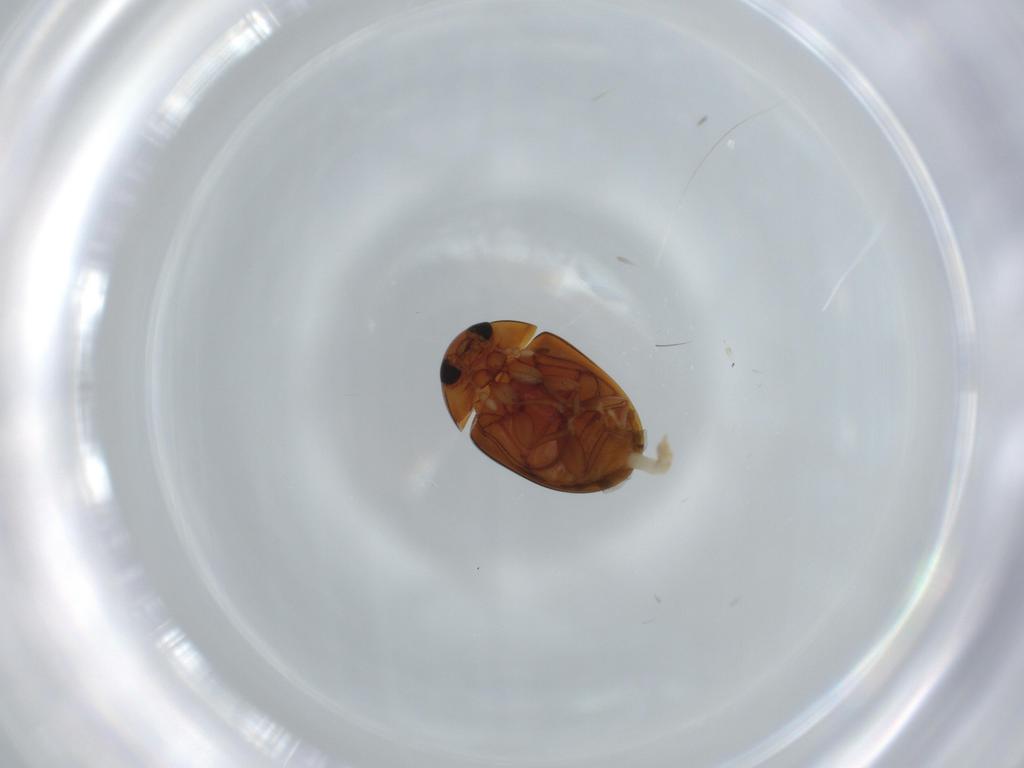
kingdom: Animalia
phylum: Arthropoda
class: Insecta
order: Coleoptera
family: Phalacridae
